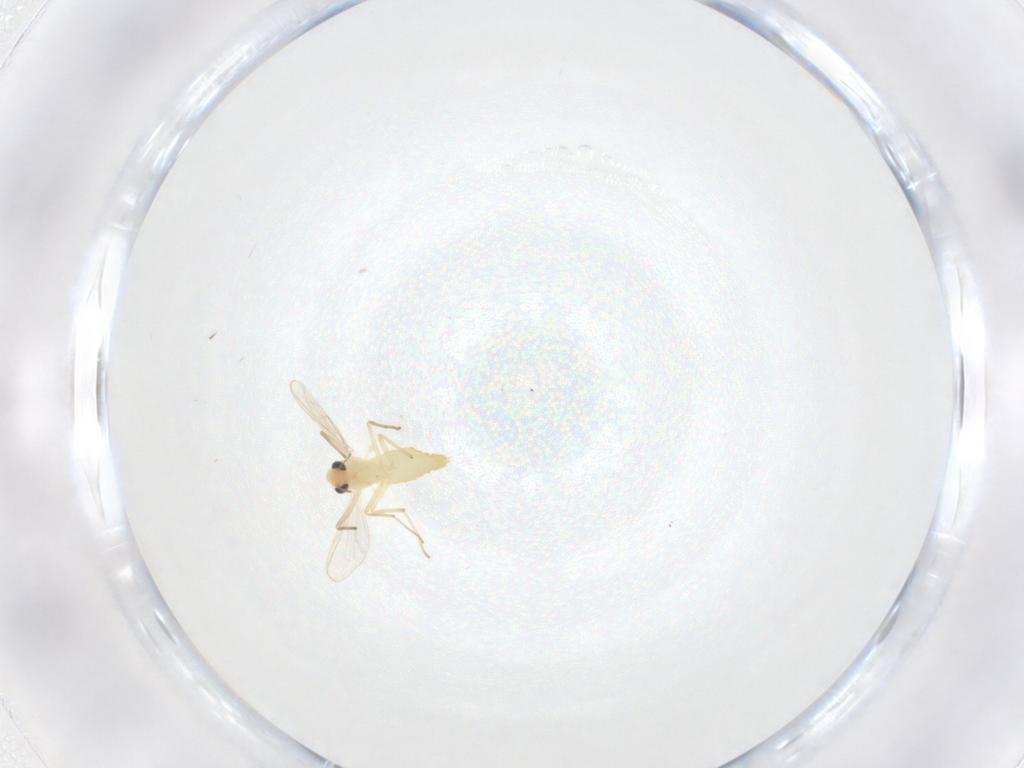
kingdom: Animalia
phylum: Arthropoda
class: Insecta
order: Diptera
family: Chironomidae
